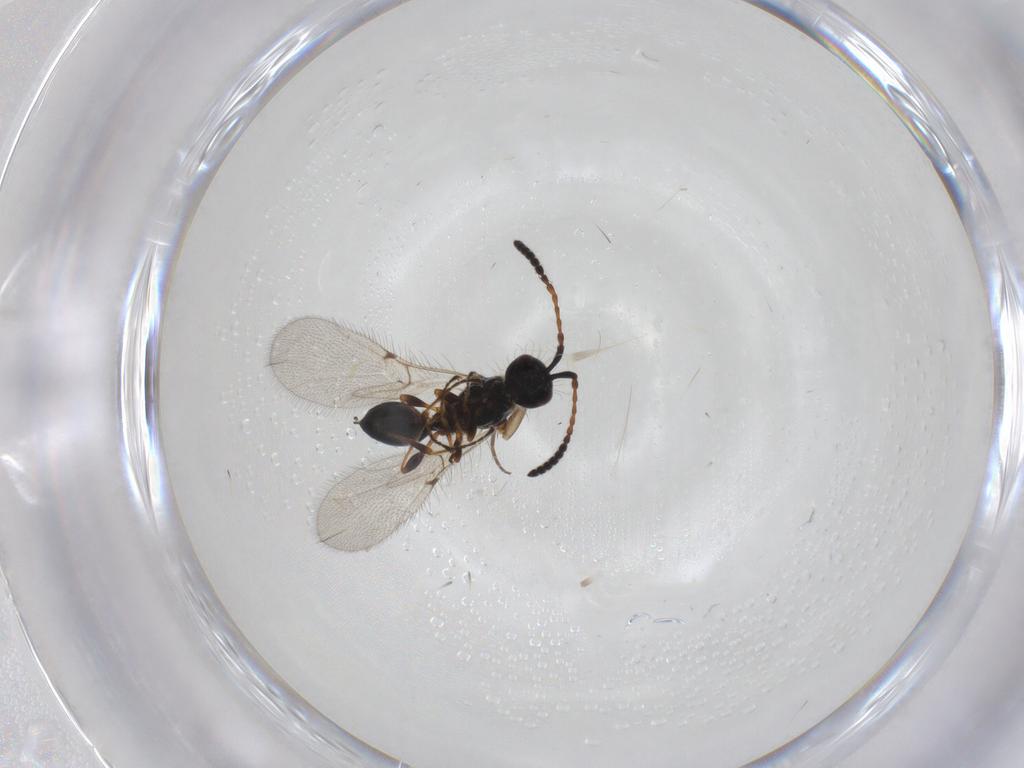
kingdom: Animalia
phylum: Arthropoda
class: Insecta
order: Hymenoptera
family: Diapriidae
